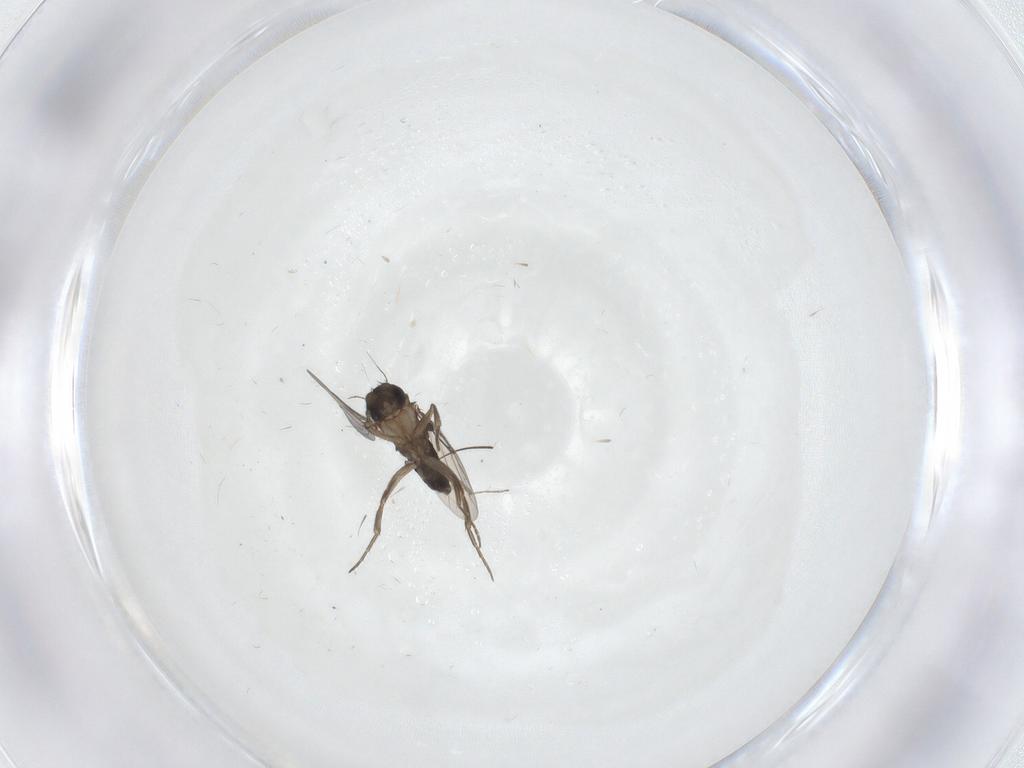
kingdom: Animalia
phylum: Arthropoda
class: Insecta
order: Diptera
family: Phoridae
